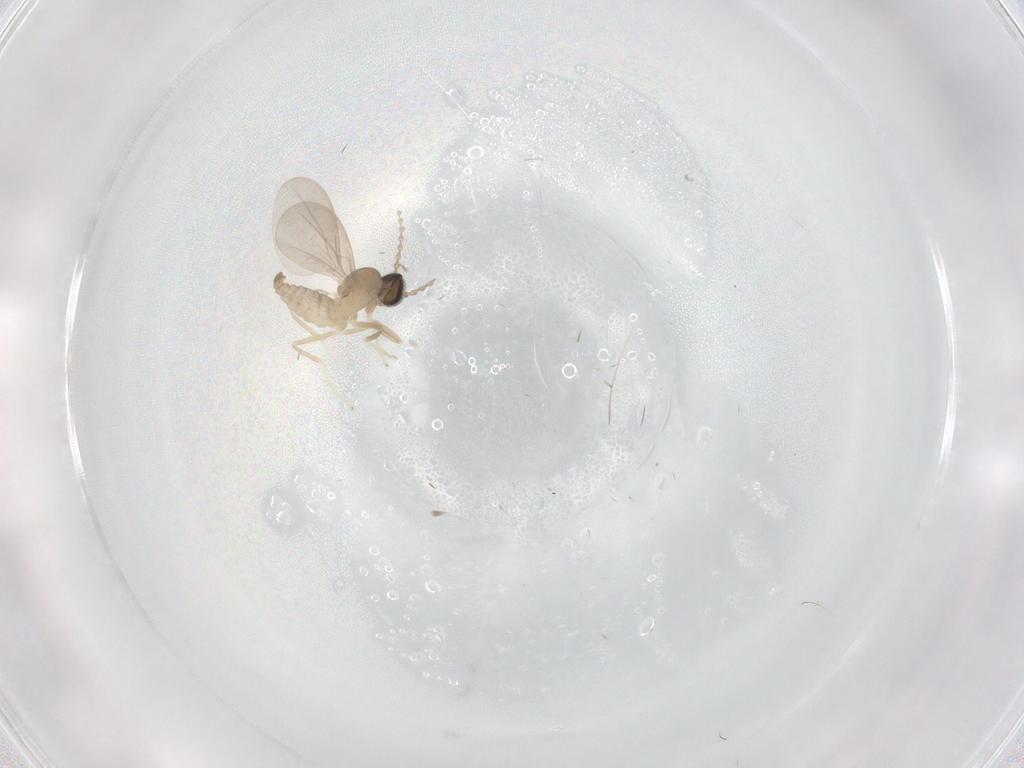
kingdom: Animalia
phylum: Arthropoda
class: Insecta
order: Diptera
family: Cecidomyiidae
